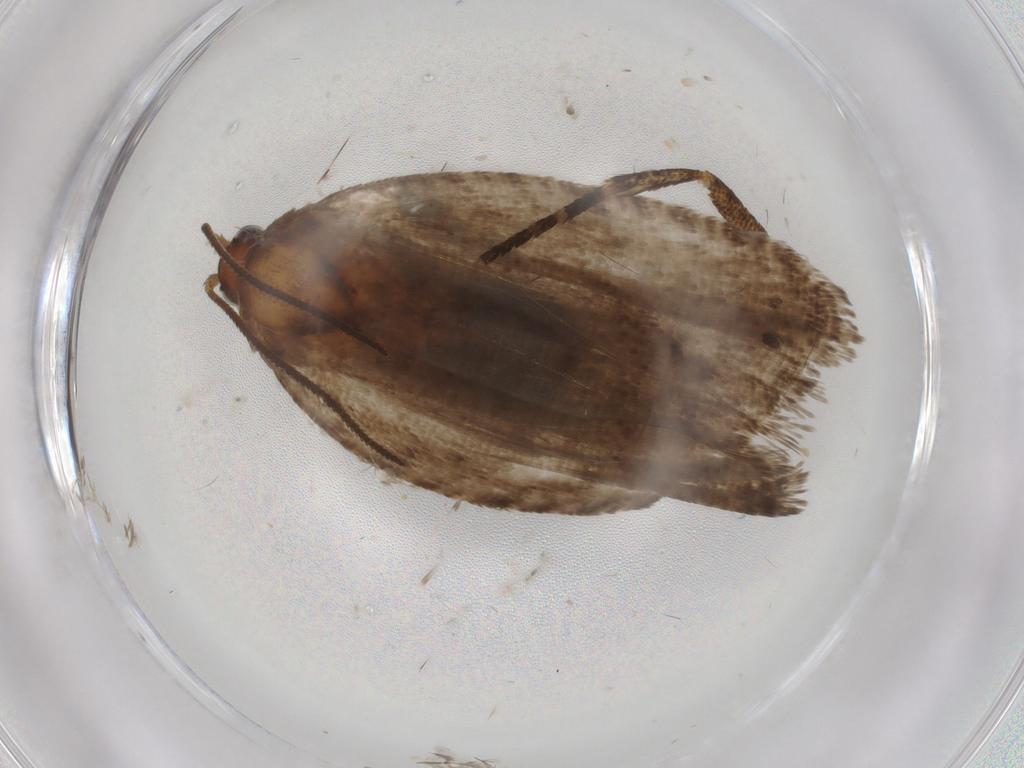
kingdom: Animalia
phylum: Arthropoda
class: Insecta
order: Lepidoptera
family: Gelechiidae
